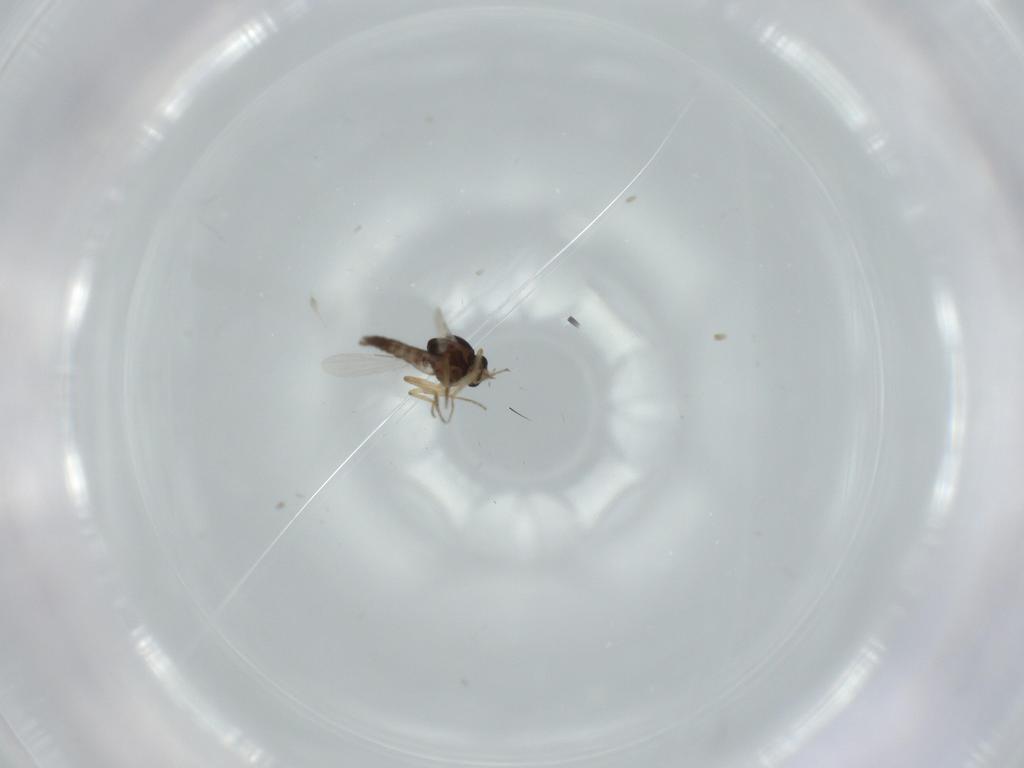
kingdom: Animalia
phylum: Arthropoda
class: Insecta
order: Diptera
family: Ceratopogonidae
